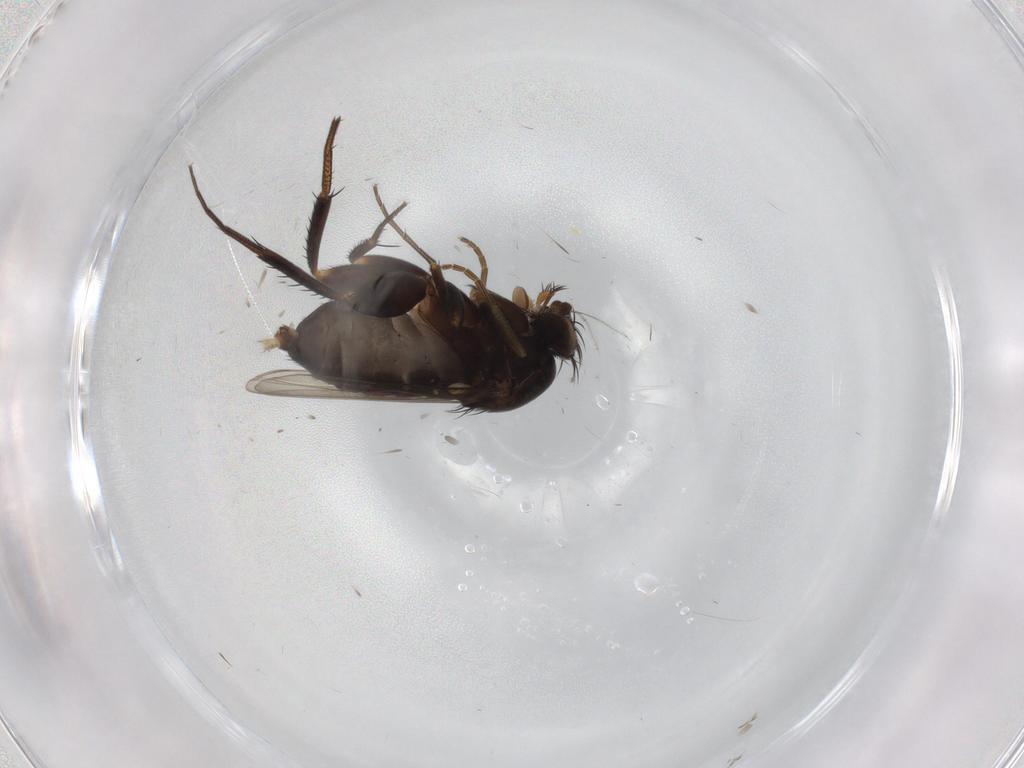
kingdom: Animalia
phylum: Arthropoda
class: Insecta
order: Diptera
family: Phoridae
